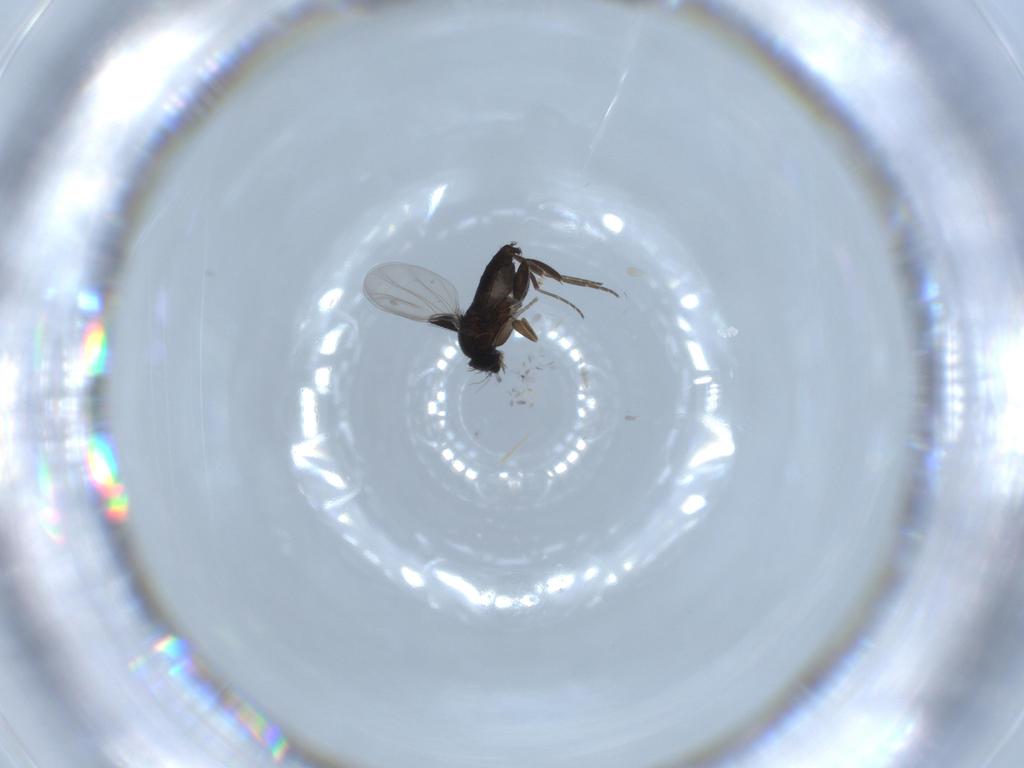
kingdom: Animalia
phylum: Arthropoda
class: Insecta
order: Diptera
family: Phoridae
